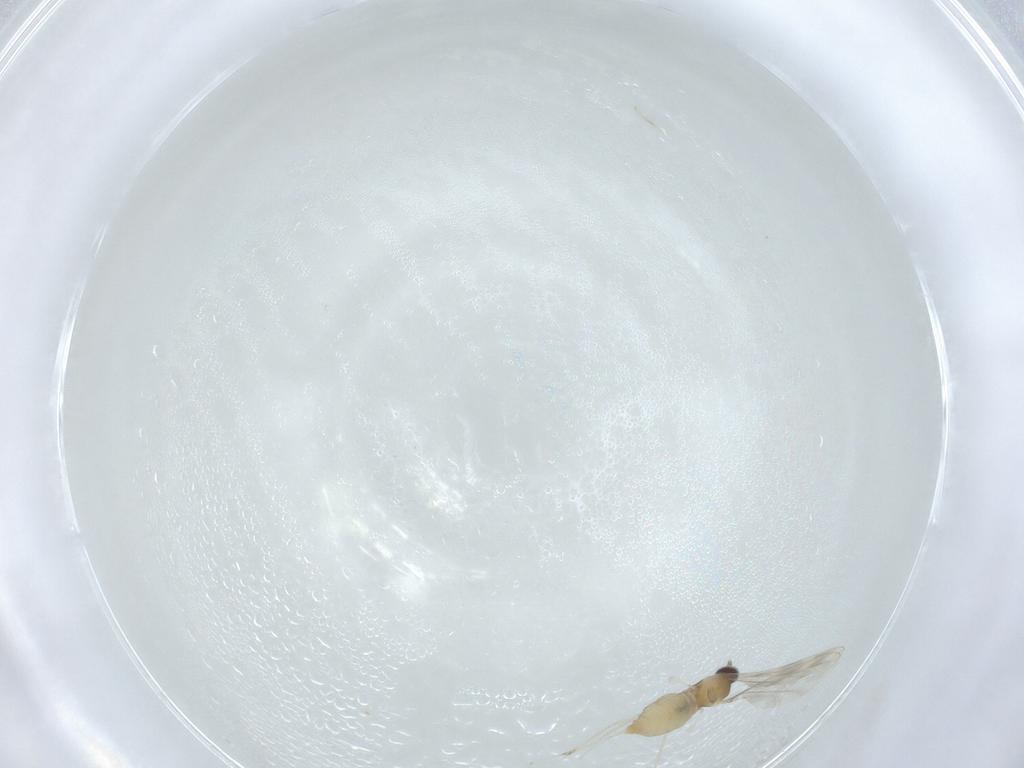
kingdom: Animalia
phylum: Arthropoda
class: Insecta
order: Diptera
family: Cecidomyiidae
